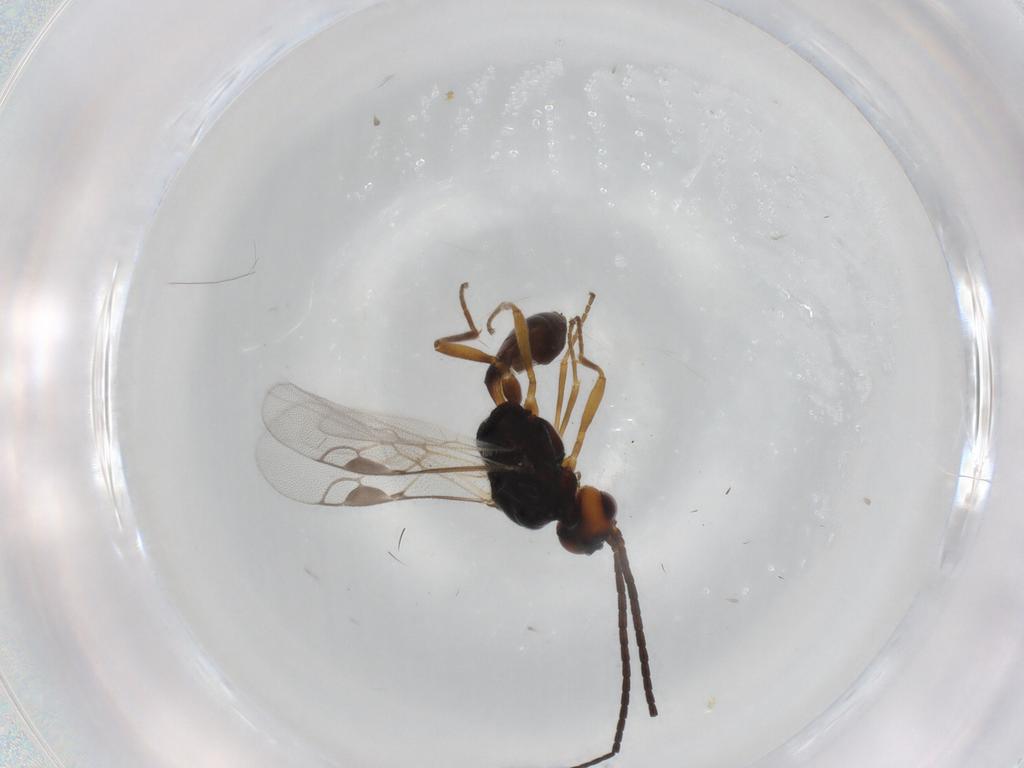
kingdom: Animalia
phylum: Arthropoda
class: Insecta
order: Hymenoptera
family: Braconidae
